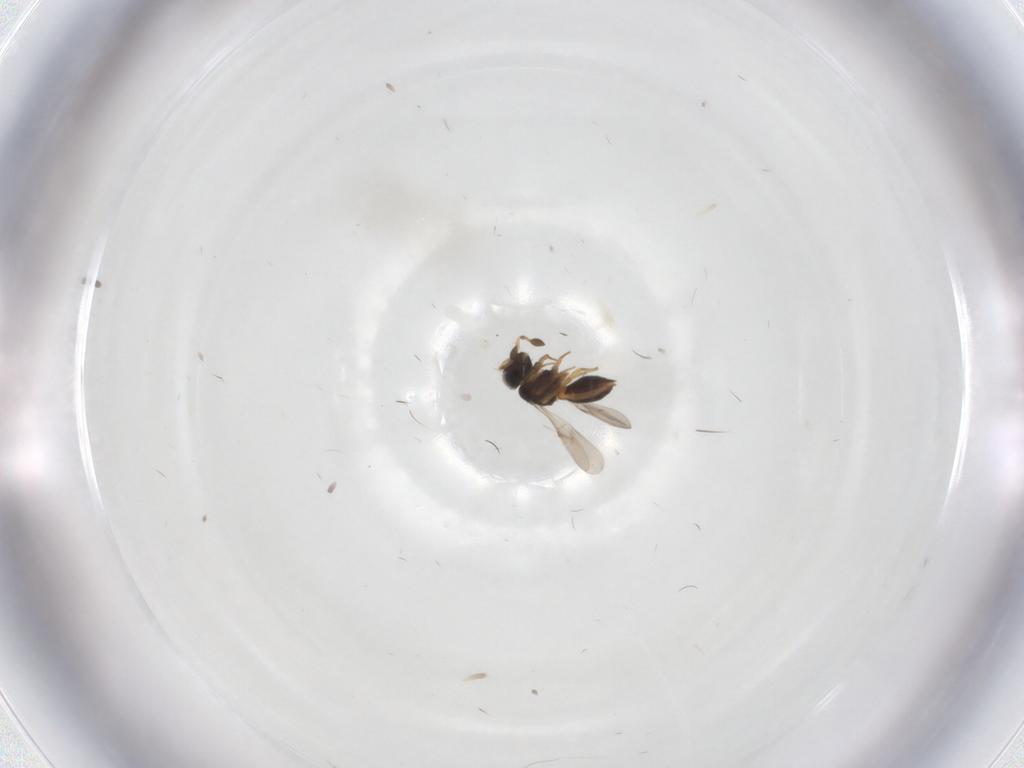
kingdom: Animalia
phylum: Arthropoda
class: Insecta
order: Hymenoptera
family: Scelionidae
